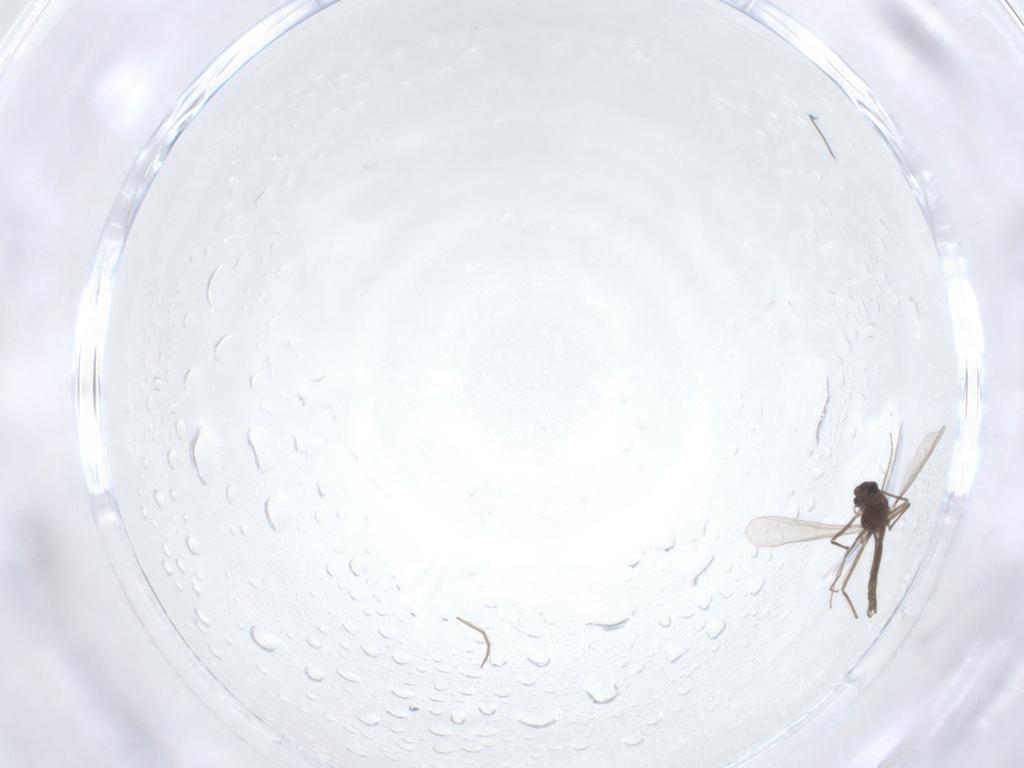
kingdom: Animalia
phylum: Arthropoda
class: Insecta
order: Diptera
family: Chironomidae
